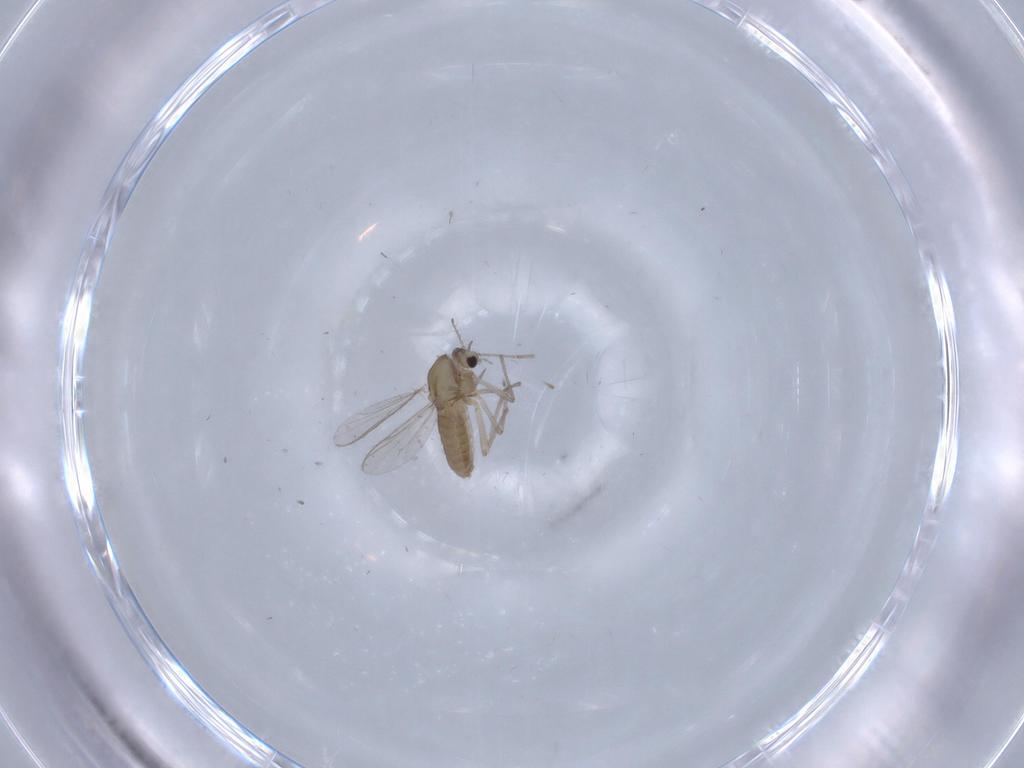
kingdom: Animalia
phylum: Arthropoda
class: Insecta
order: Diptera
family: Chironomidae
